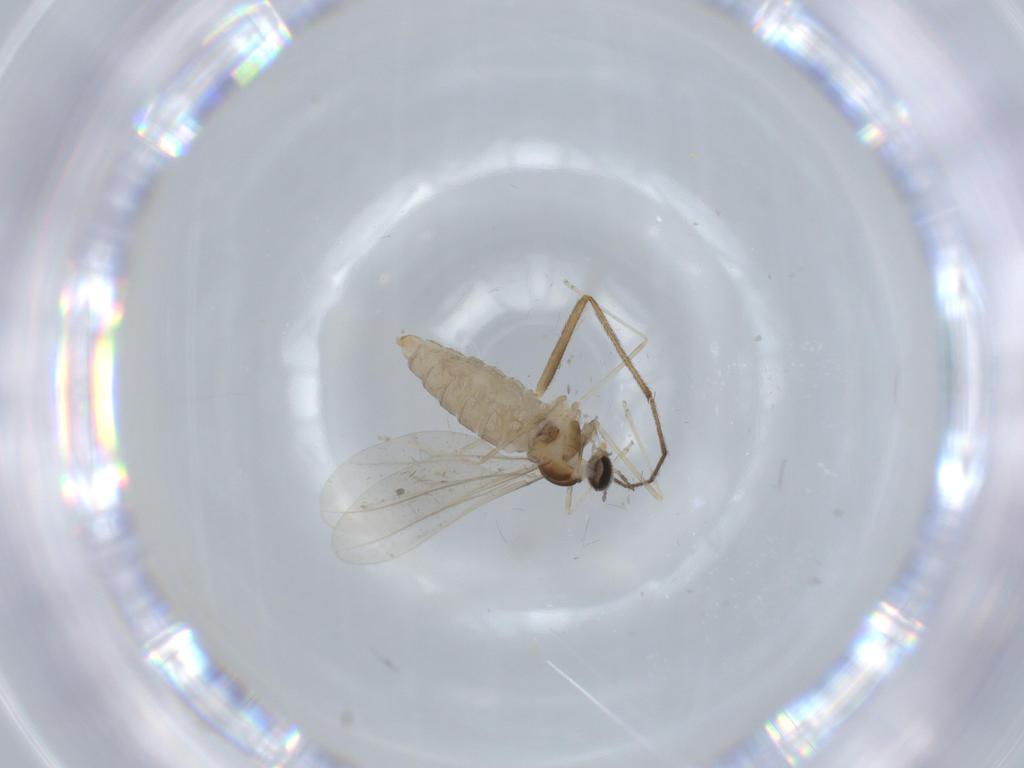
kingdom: Animalia
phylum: Arthropoda
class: Insecta
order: Diptera
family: Cecidomyiidae
